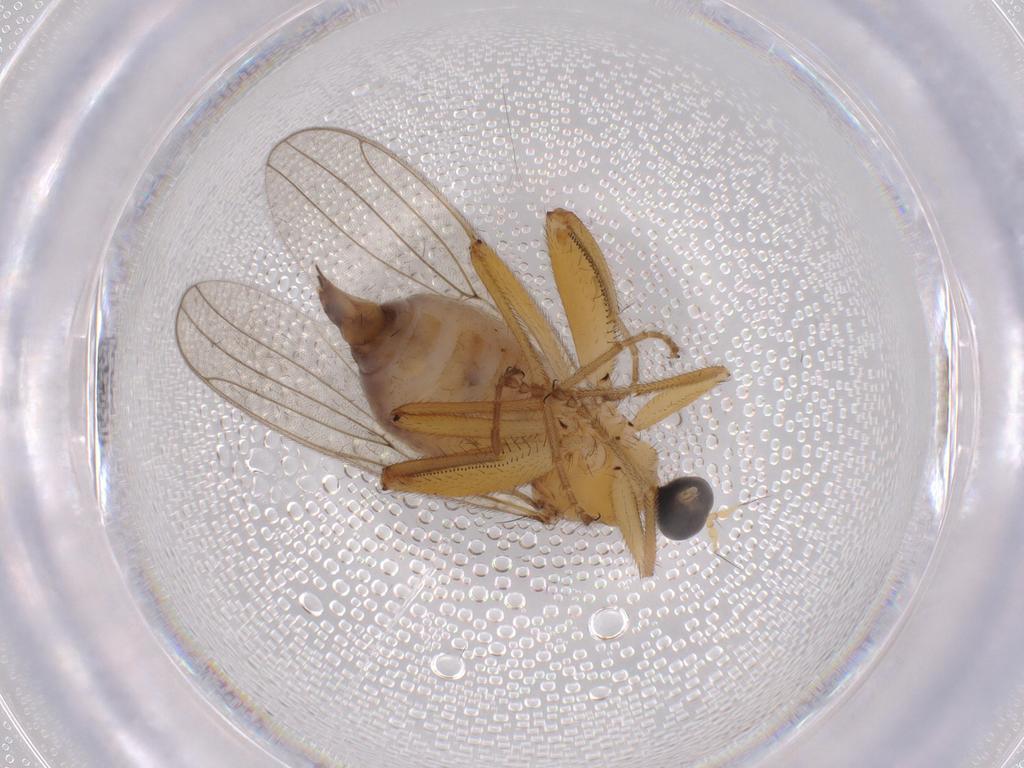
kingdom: Animalia
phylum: Arthropoda
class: Insecta
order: Diptera
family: Hybotidae
